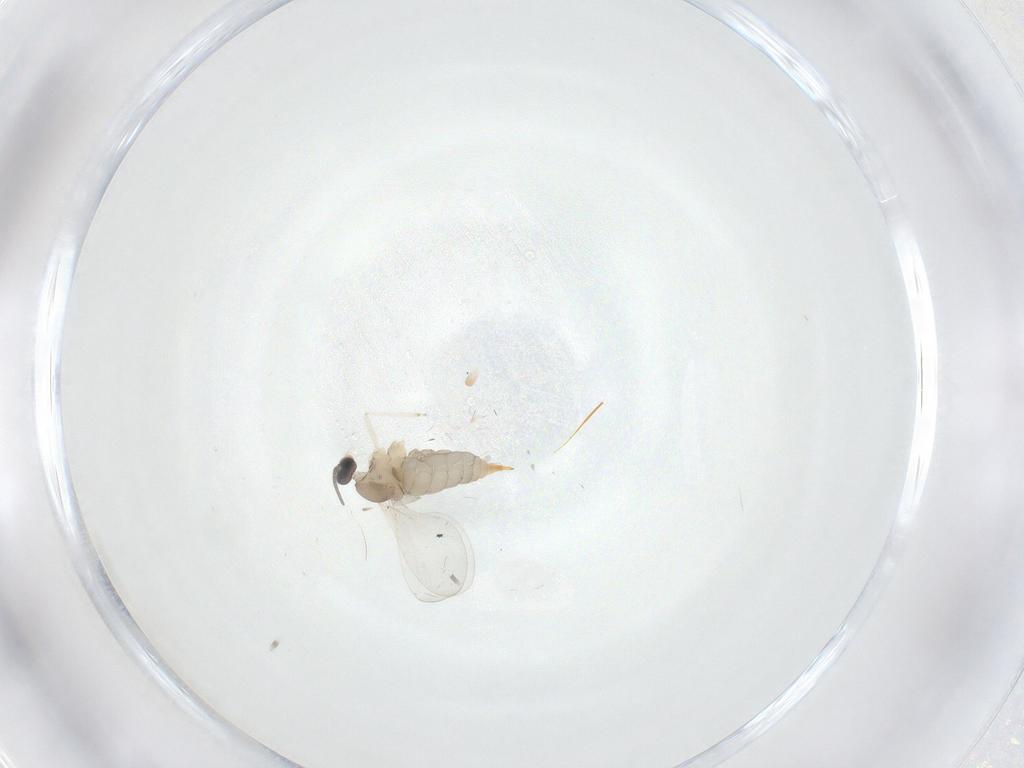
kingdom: Animalia
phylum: Arthropoda
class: Insecta
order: Diptera
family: Cecidomyiidae
